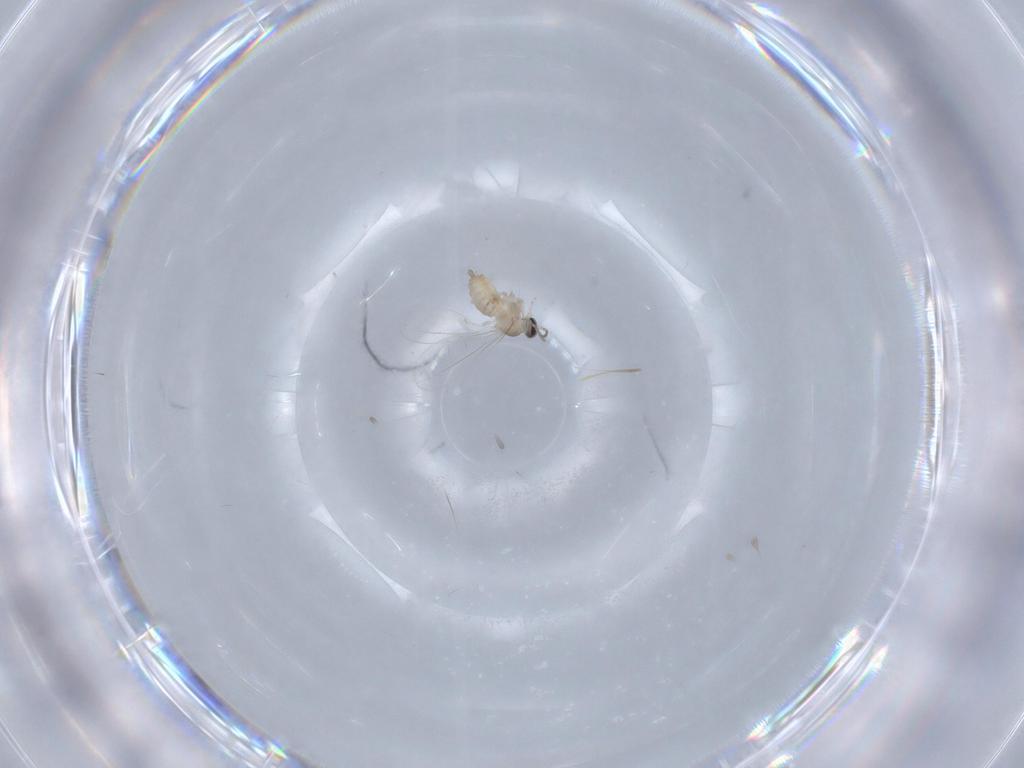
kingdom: Animalia
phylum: Arthropoda
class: Insecta
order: Diptera
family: Cecidomyiidae
